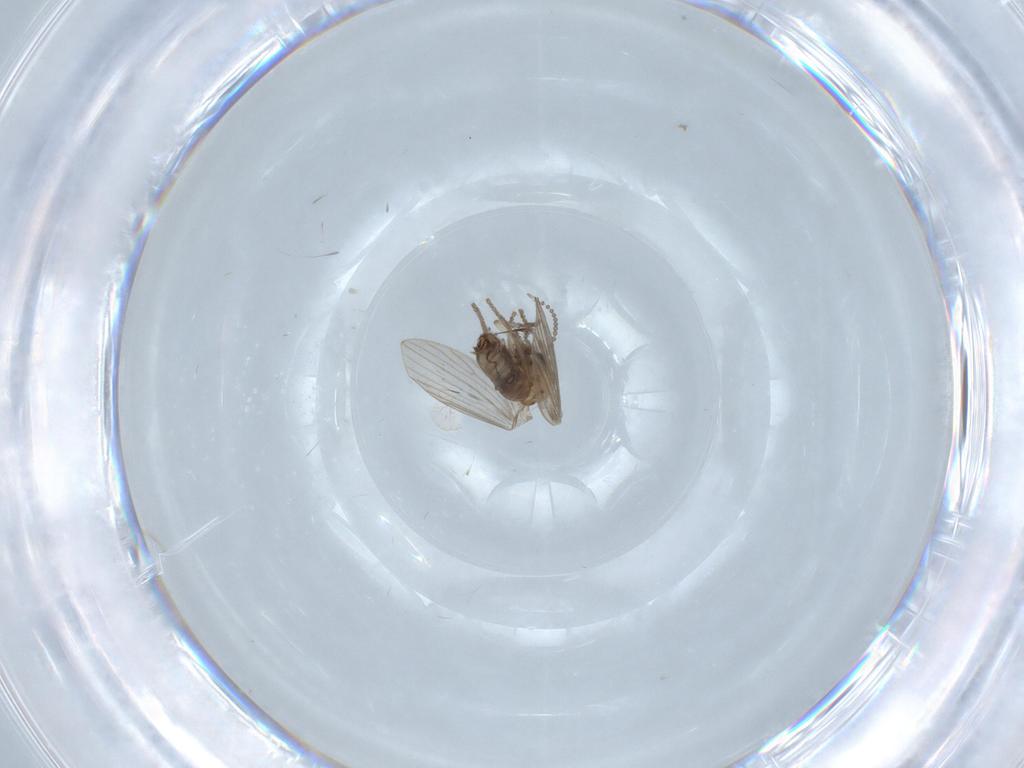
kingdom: Animalia
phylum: Arthropoda
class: Insecta
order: Diptera
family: Psychodidae
